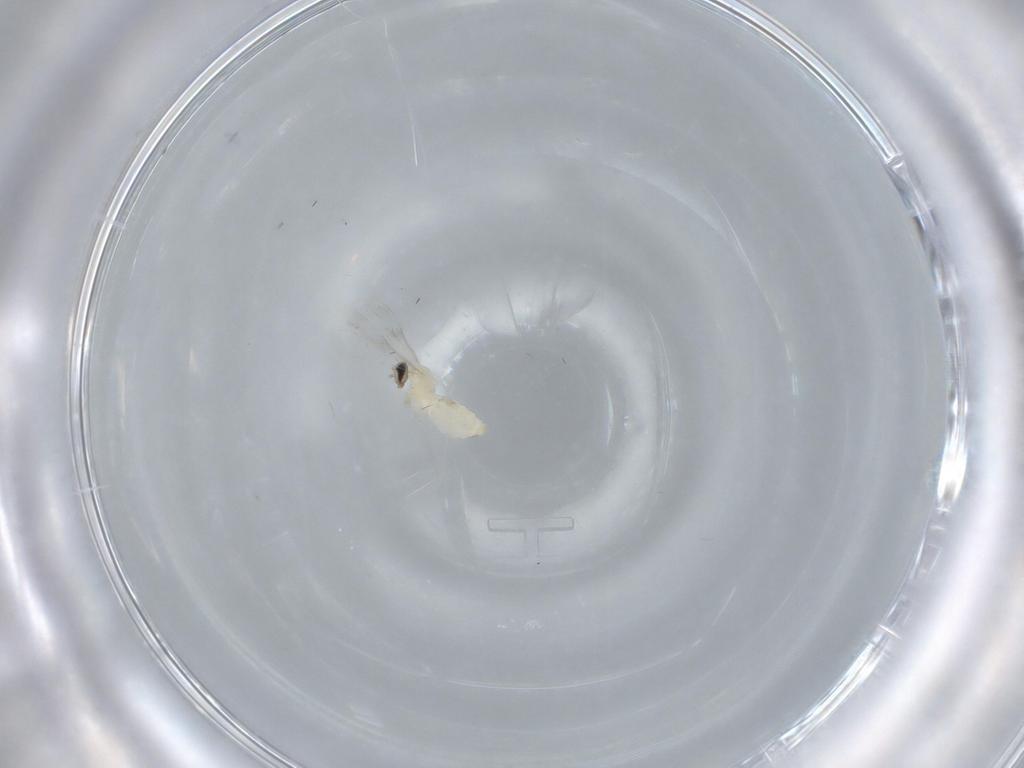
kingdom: Animalia
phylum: Arthropoda
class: Insecta
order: Diptera
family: Cecidomyiidae
